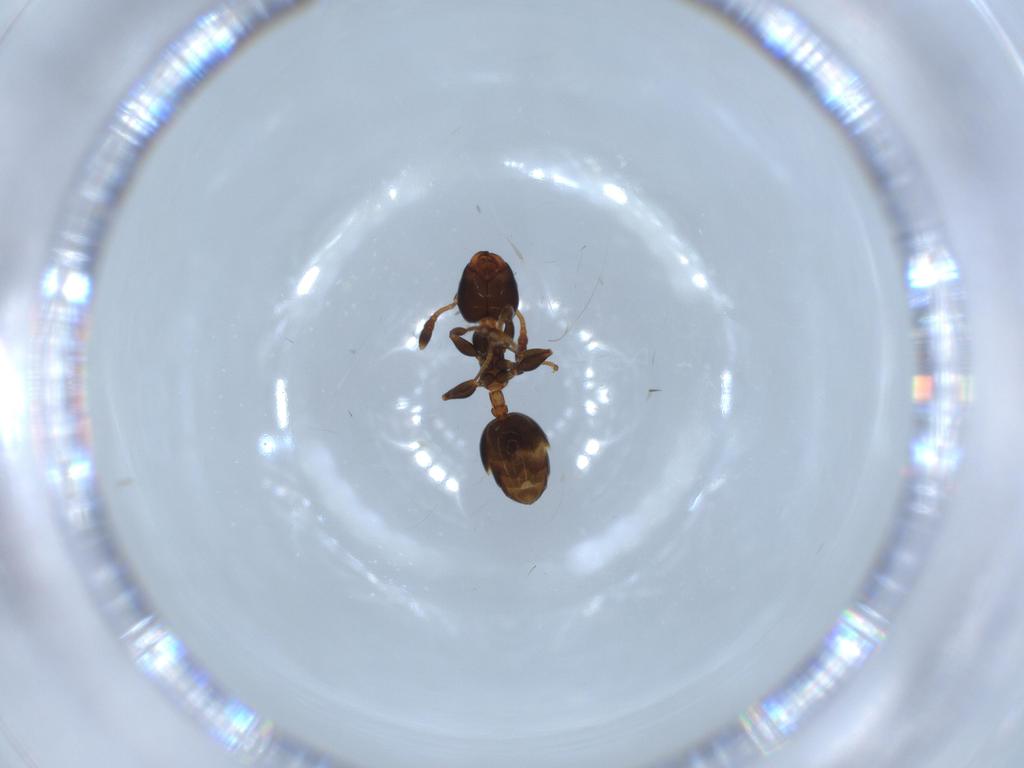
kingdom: Animalia
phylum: Arthropoda
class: Insecta
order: Hymenoptera
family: Formicidae
